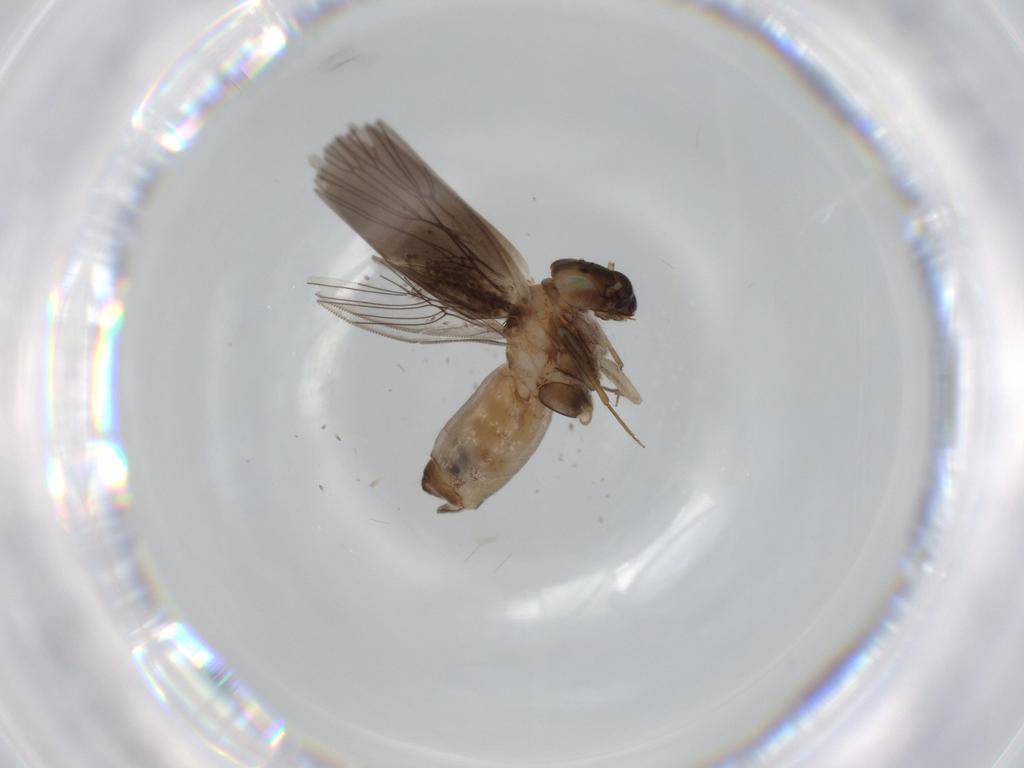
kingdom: Animalia
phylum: Arthropoda
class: Insecta
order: Psocodea
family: Lepidopsocidae
